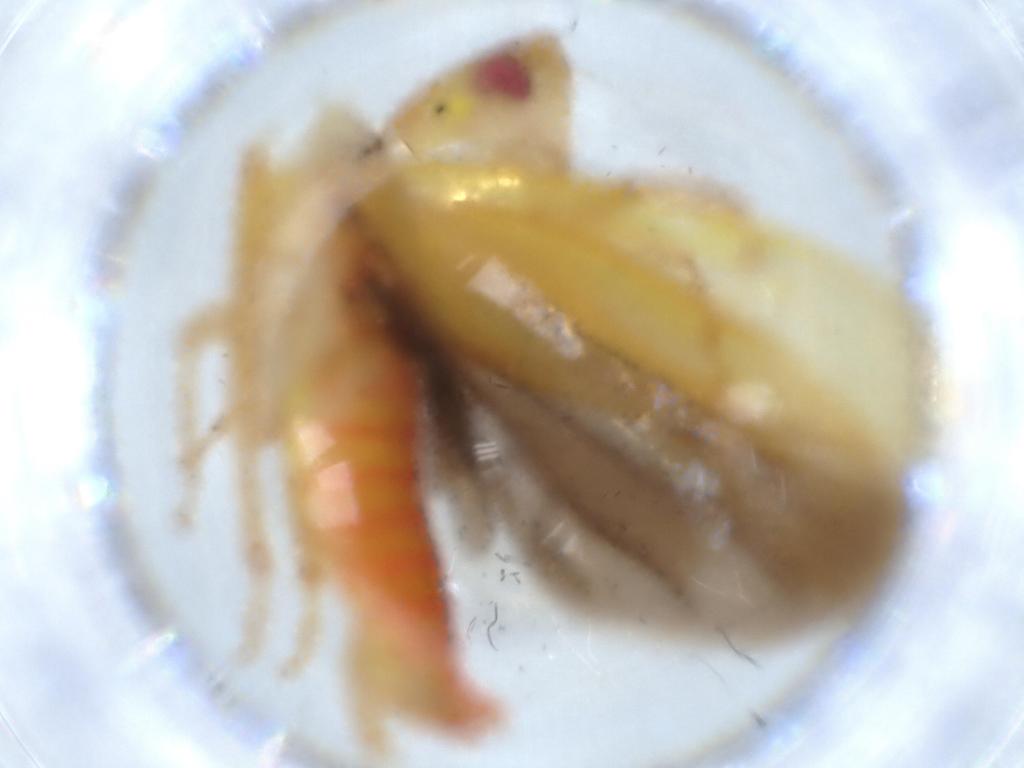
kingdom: Animalia
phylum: Arthropoda
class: Insecta
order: Hemiptera
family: Cicadellidae
